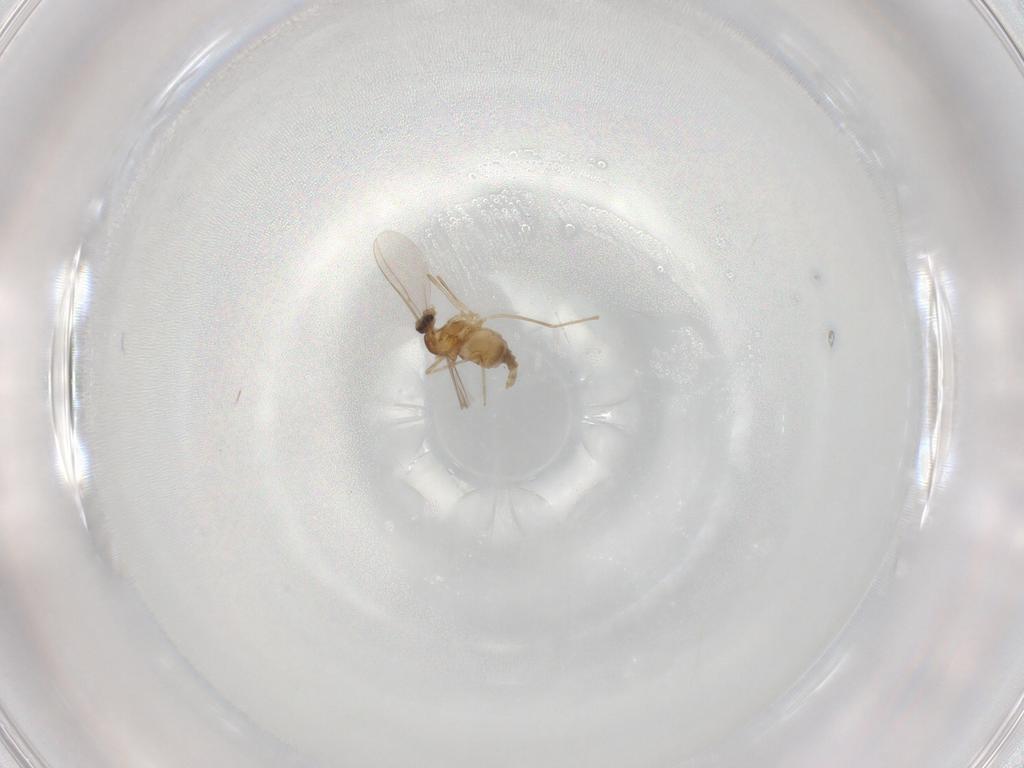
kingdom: Animalia
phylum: Arthropoda
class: Insecta
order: Diptera
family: Cecidomyiidae
